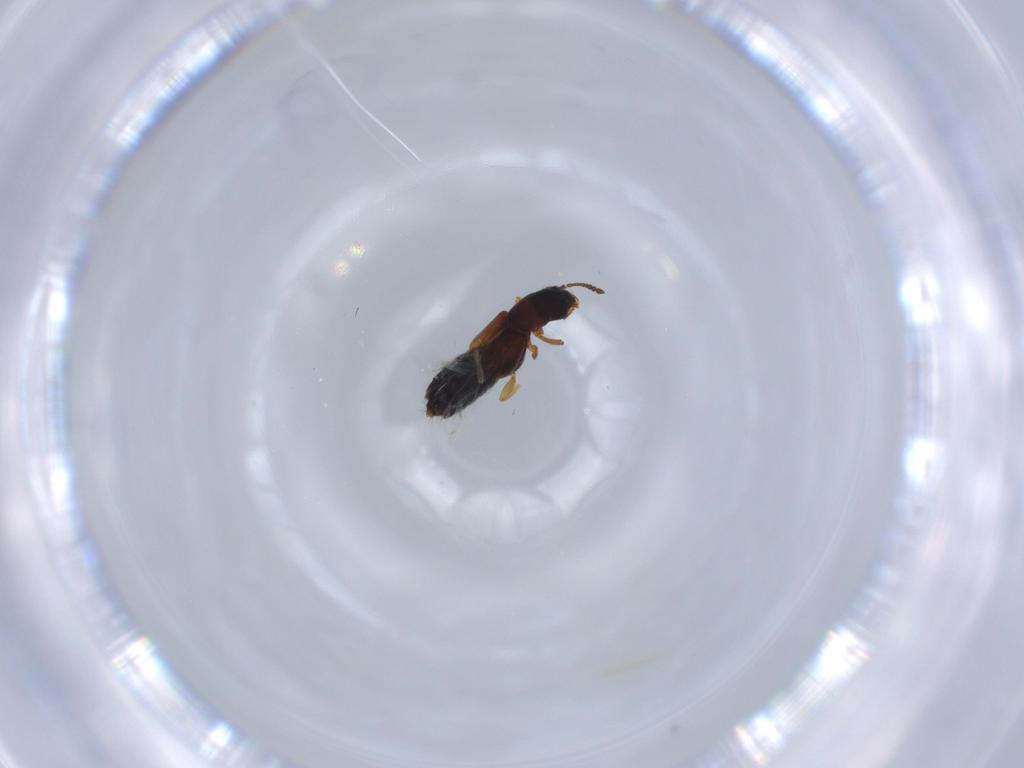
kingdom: Animalia
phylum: Arthropoda
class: Insecta
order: Coleoptera
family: Staphylinidae
